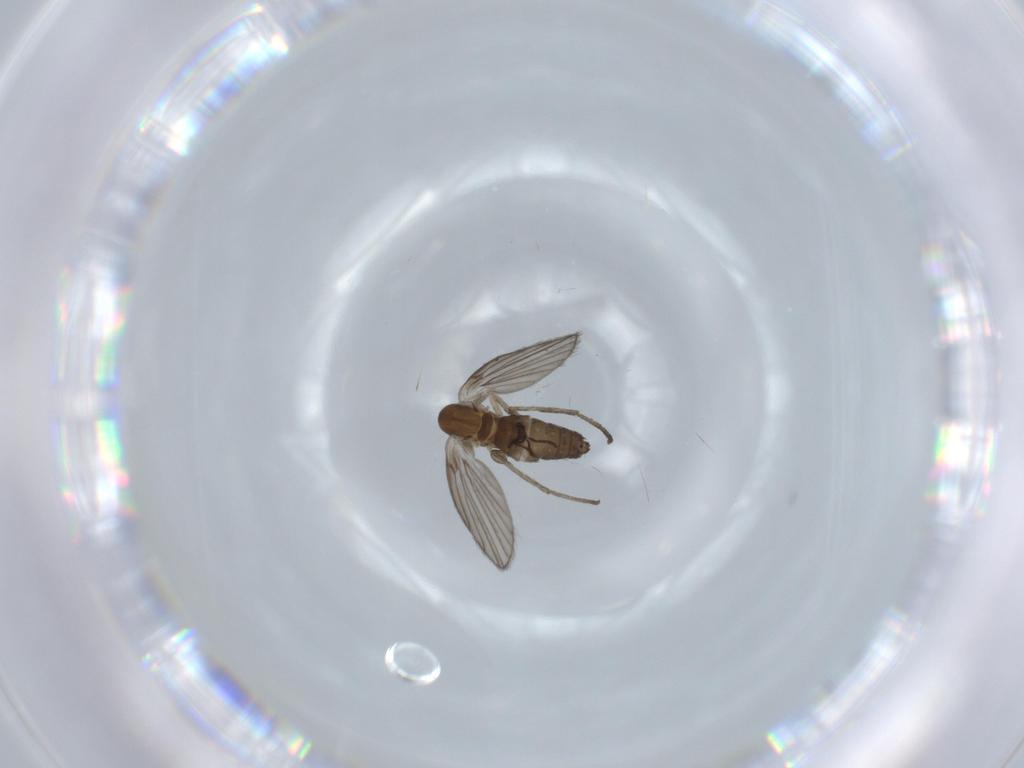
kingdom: Animalia
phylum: Arthropoda
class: Insecta
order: Diptera
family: Psychodidae
